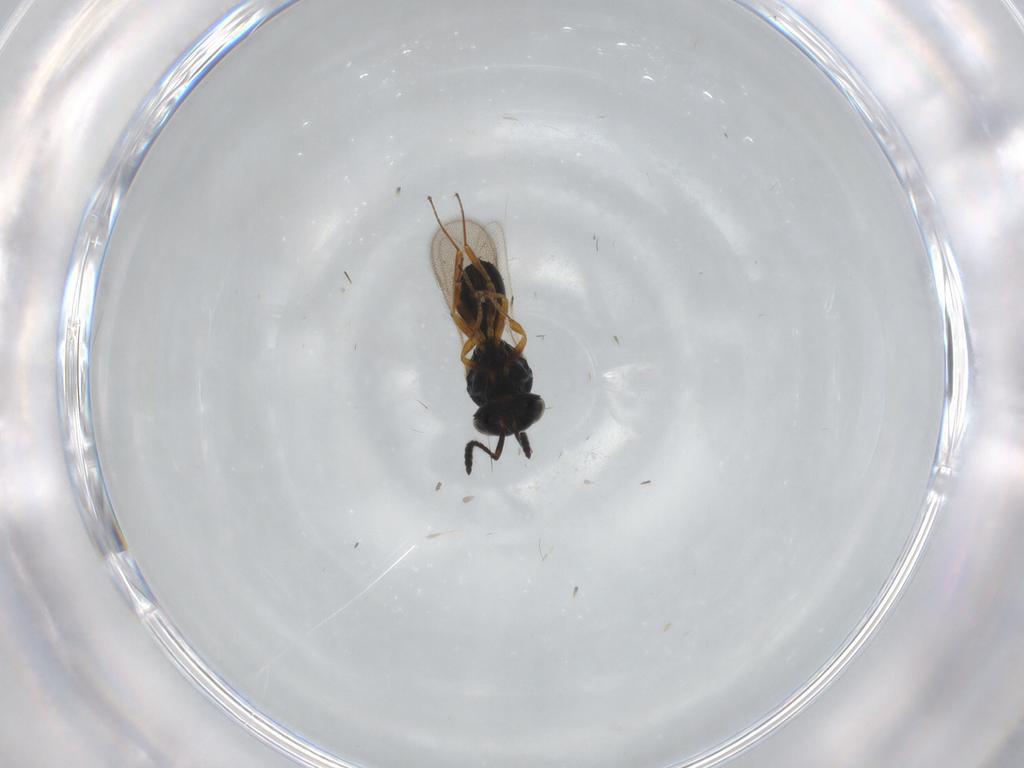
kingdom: Animalia
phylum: Arthropoda
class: Insecta
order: Hymenoptera
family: Scelionidae
